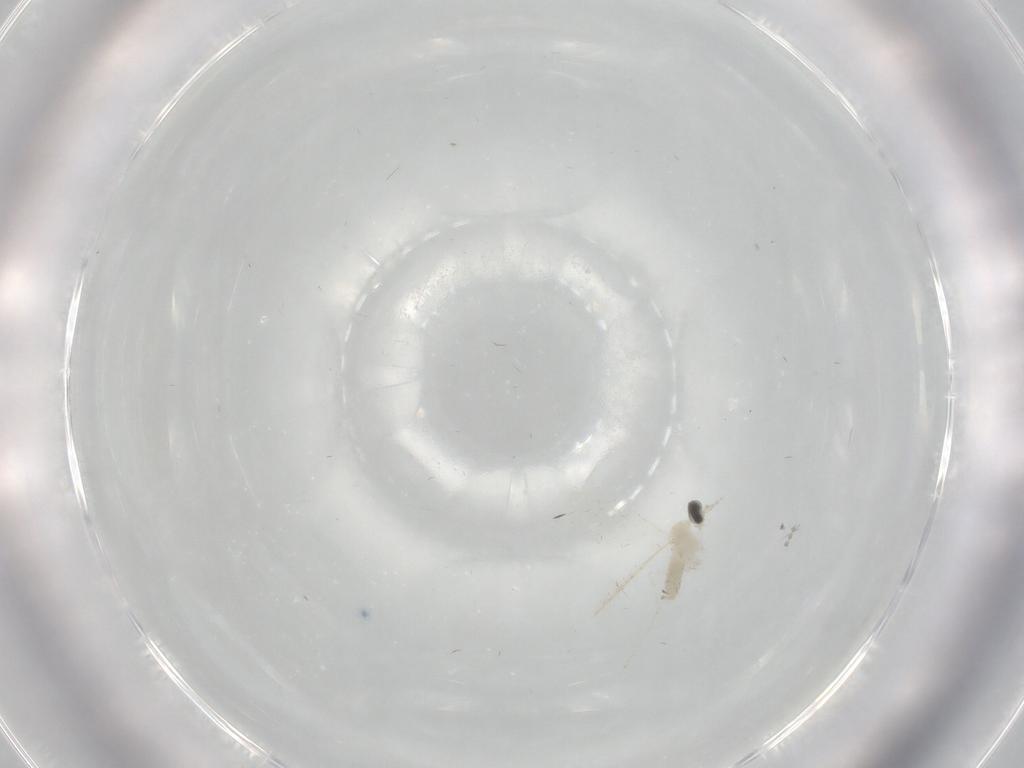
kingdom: Animalia
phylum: Arthropoda
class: Insecta
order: Diptera
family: Cecidomyiidae
